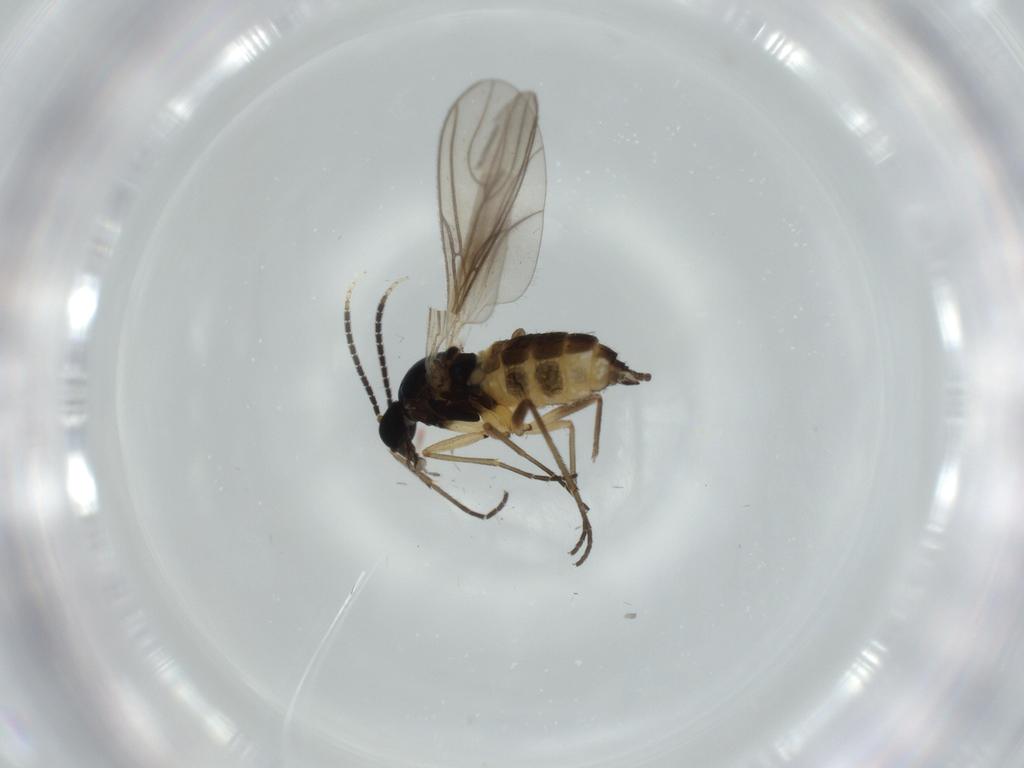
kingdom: Animalia
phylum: Arthropoda
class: Insecta
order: Diptera
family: Sciaridae
